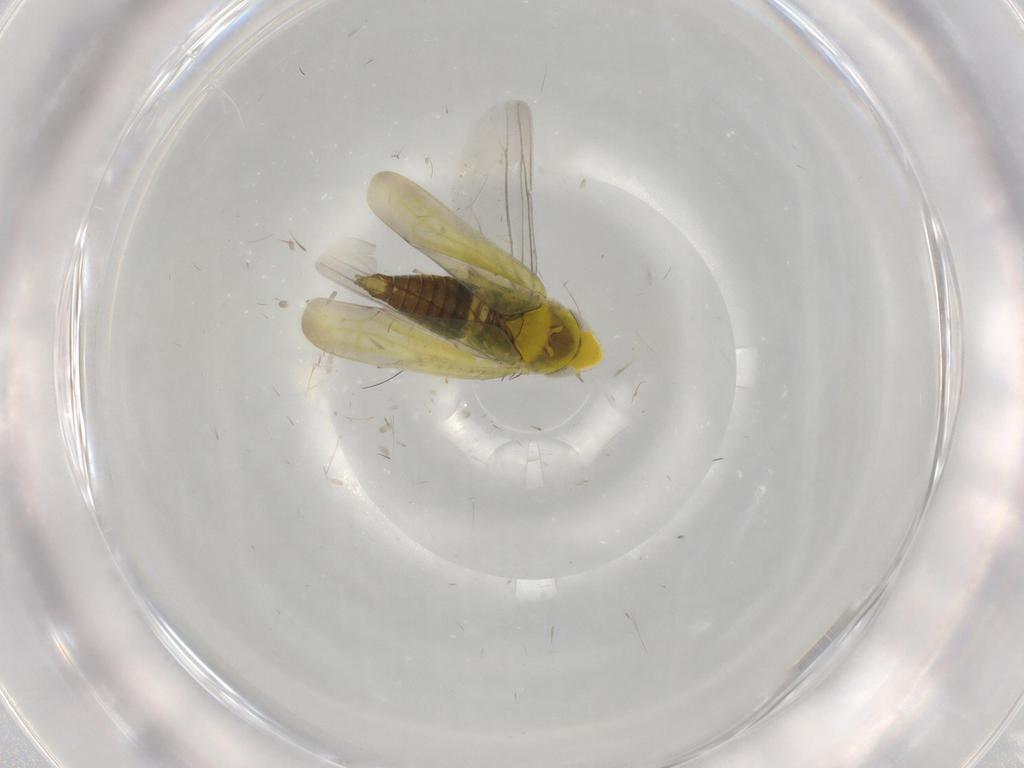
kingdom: Animalia
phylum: Arthropoda
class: Insecta
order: Hemiptera
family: Cicadellidae
